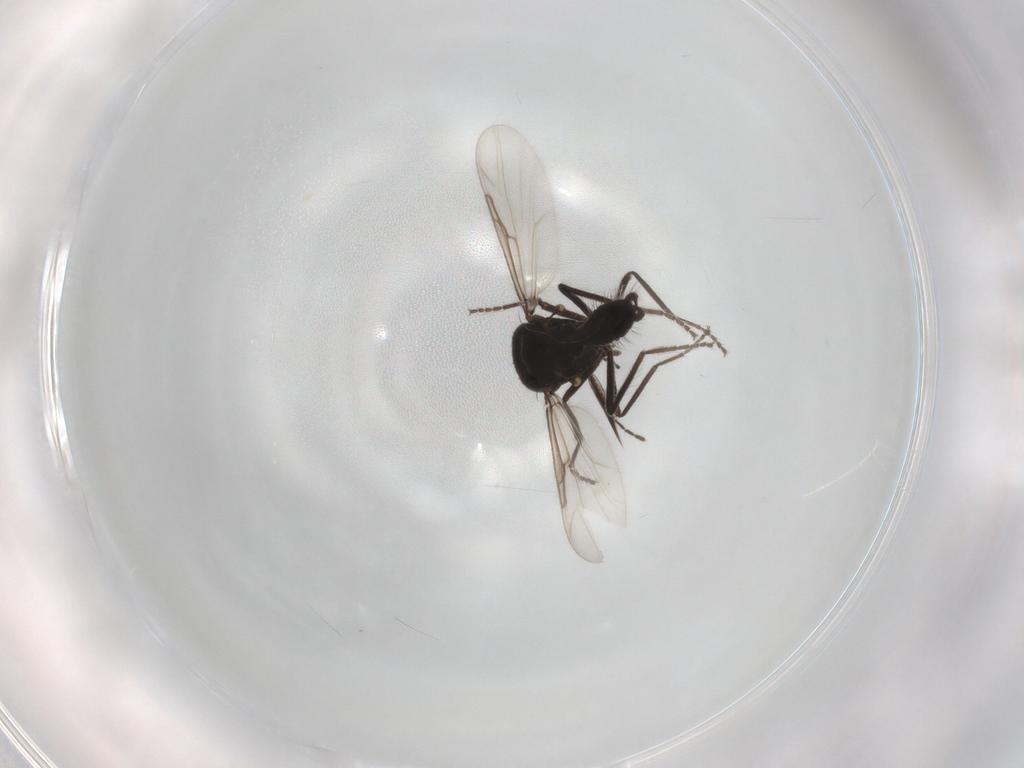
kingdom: Animalia
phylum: Arthropoda
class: Insecta
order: Diptera
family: Ceratopogonidae
